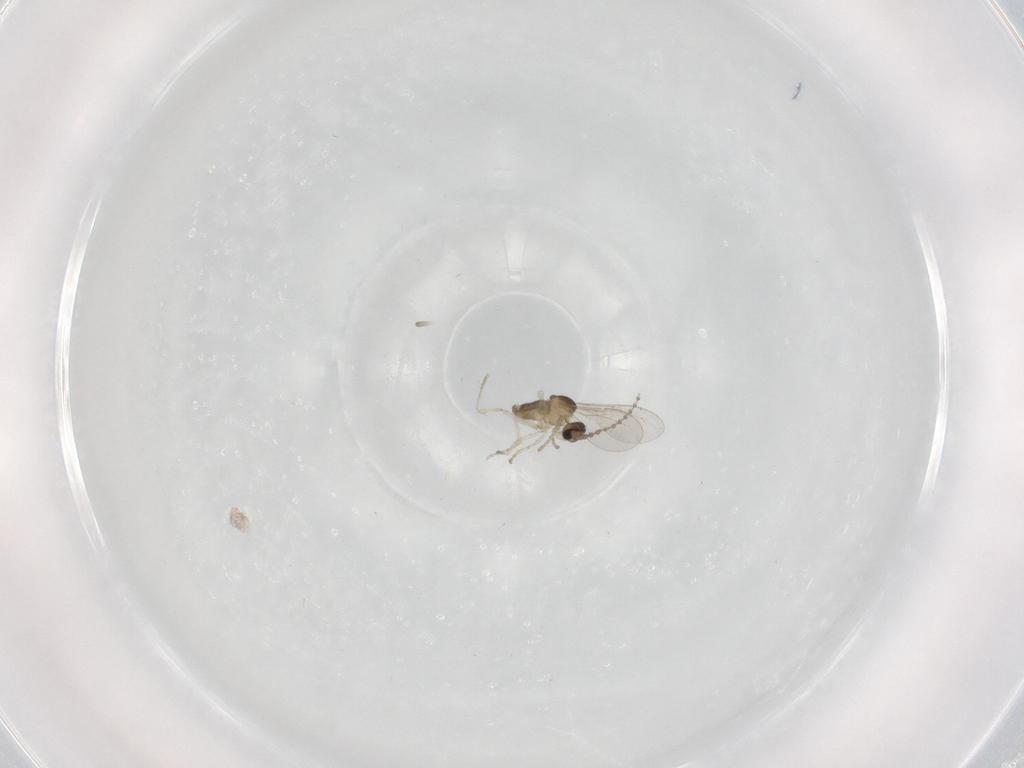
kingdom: Animalia
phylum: Arthropoda
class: Insecta
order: Diptera
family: Cecidomyiidae
